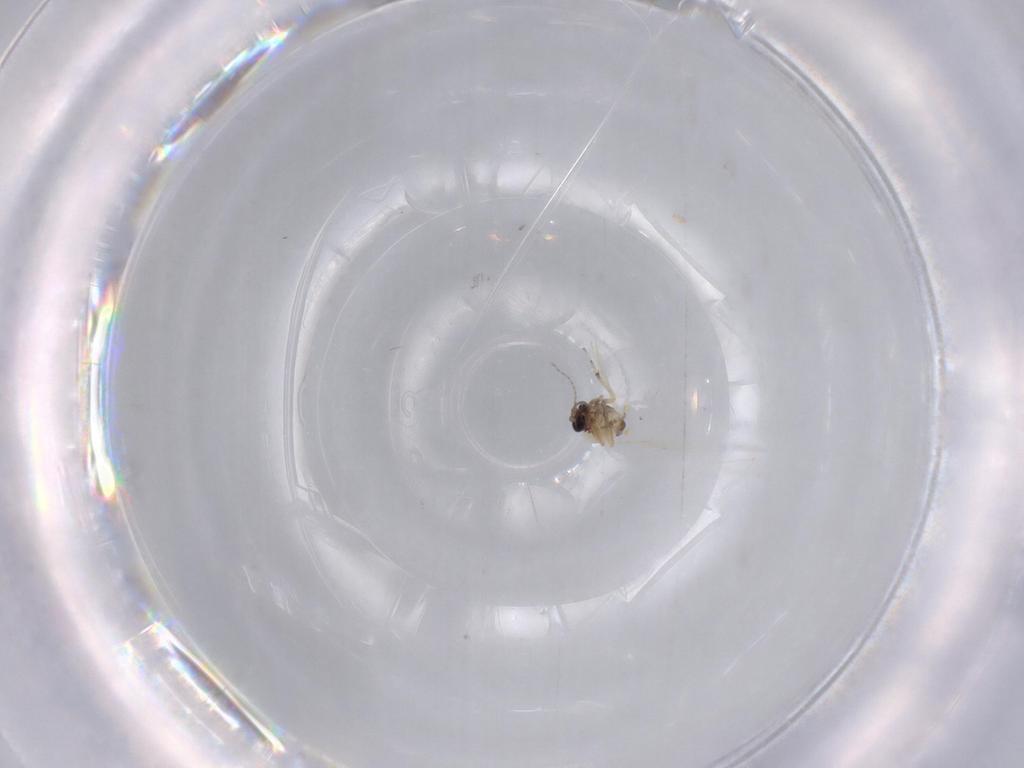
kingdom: Animalia
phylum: Arthropoda
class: Insecta
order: Diptera
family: Ceratopogonidae
